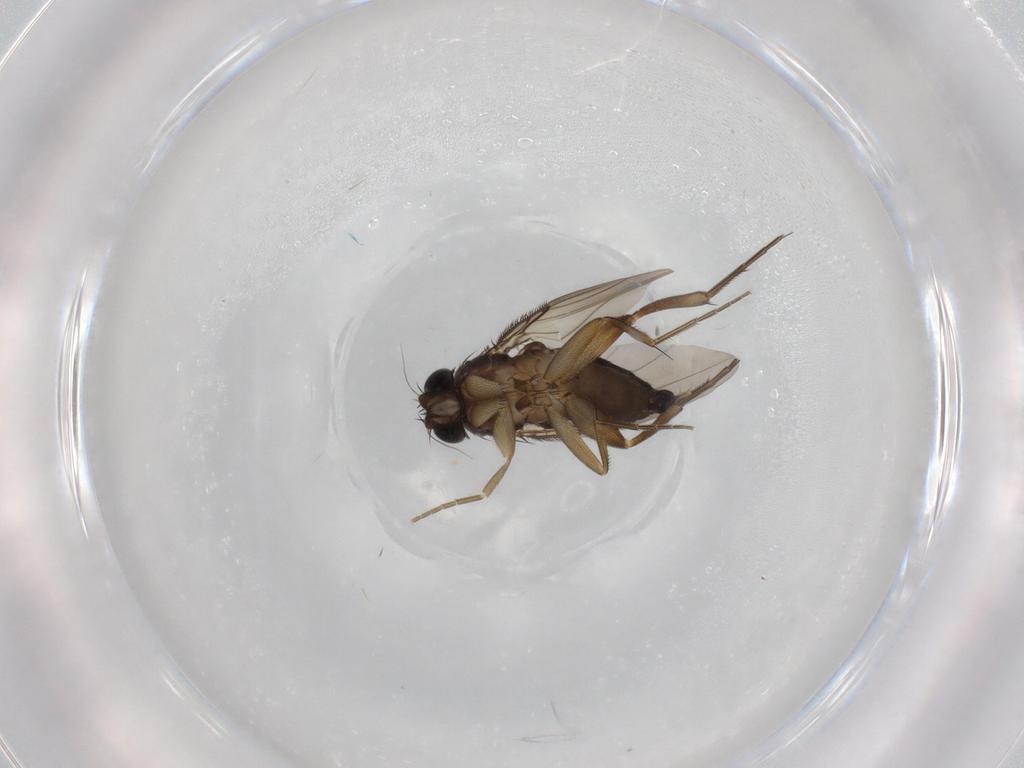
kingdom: Animalia
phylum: Arthropoda
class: Insecta
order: Diptera
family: Phoridae
